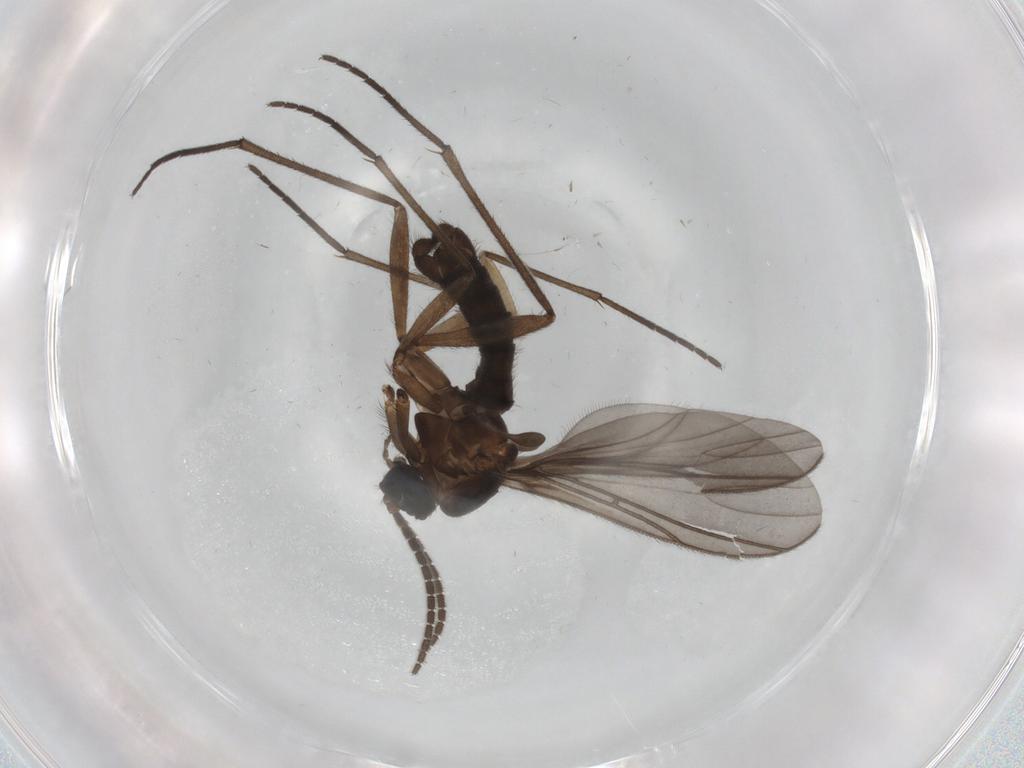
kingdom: Animalia
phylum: Arthropoda
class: Insecta
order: Diptera
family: Sciaridae
